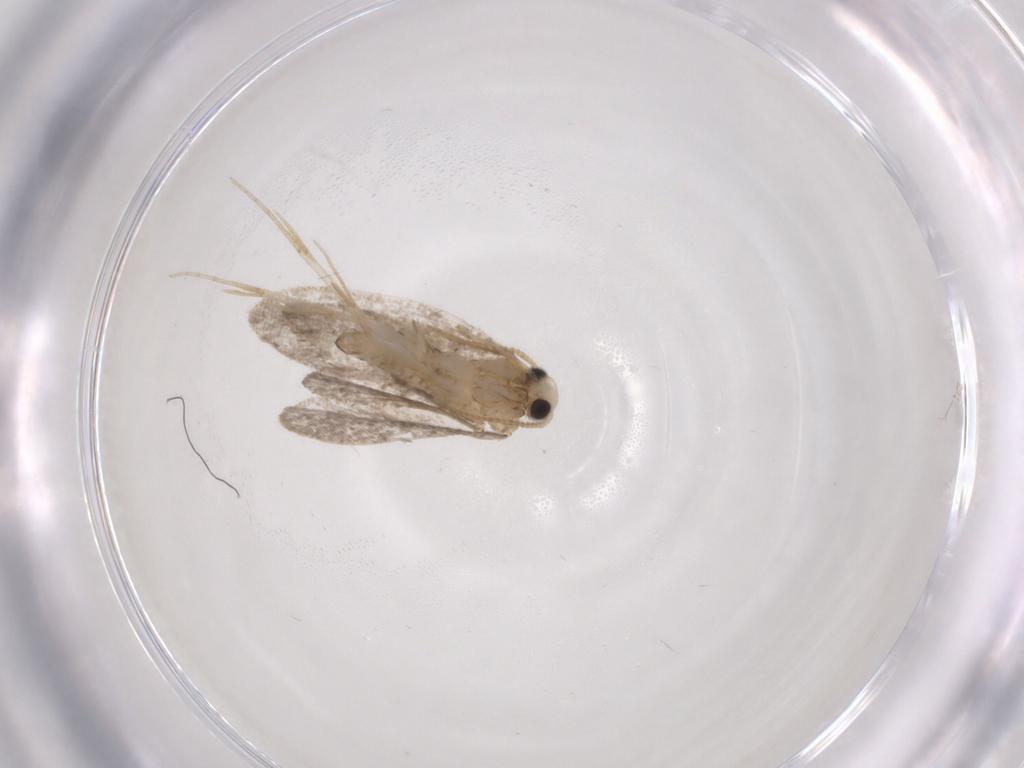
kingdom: Animalia
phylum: Arthropoda
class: Insecta
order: Lepidoptera
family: Psychidae
